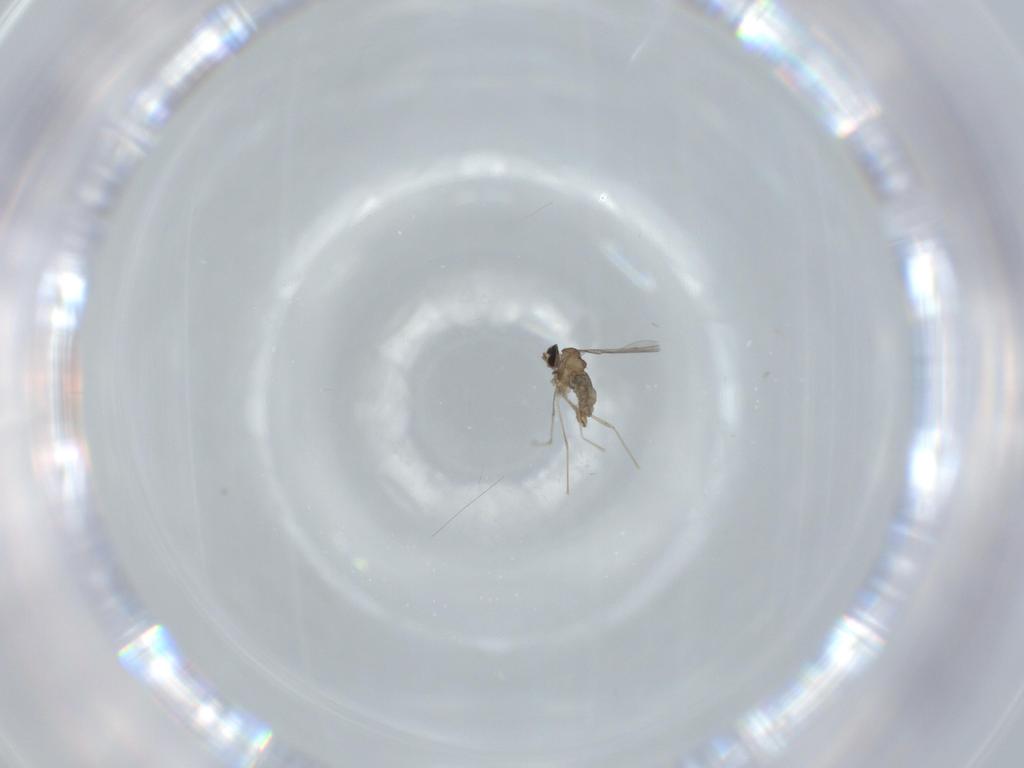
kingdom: Animalia
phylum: Arthropoda
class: Insecta
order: Diptera
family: Cecidomyiidae
